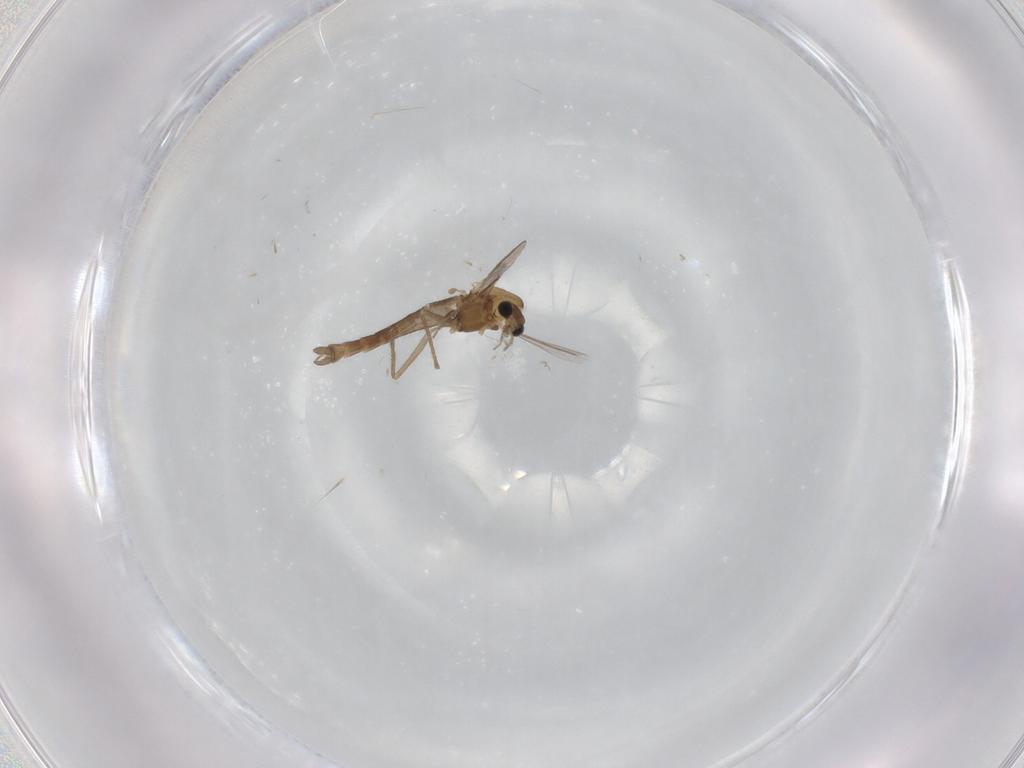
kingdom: Animalia
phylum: Arthropoda
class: Insecta
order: Diptera
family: Chironomidae
